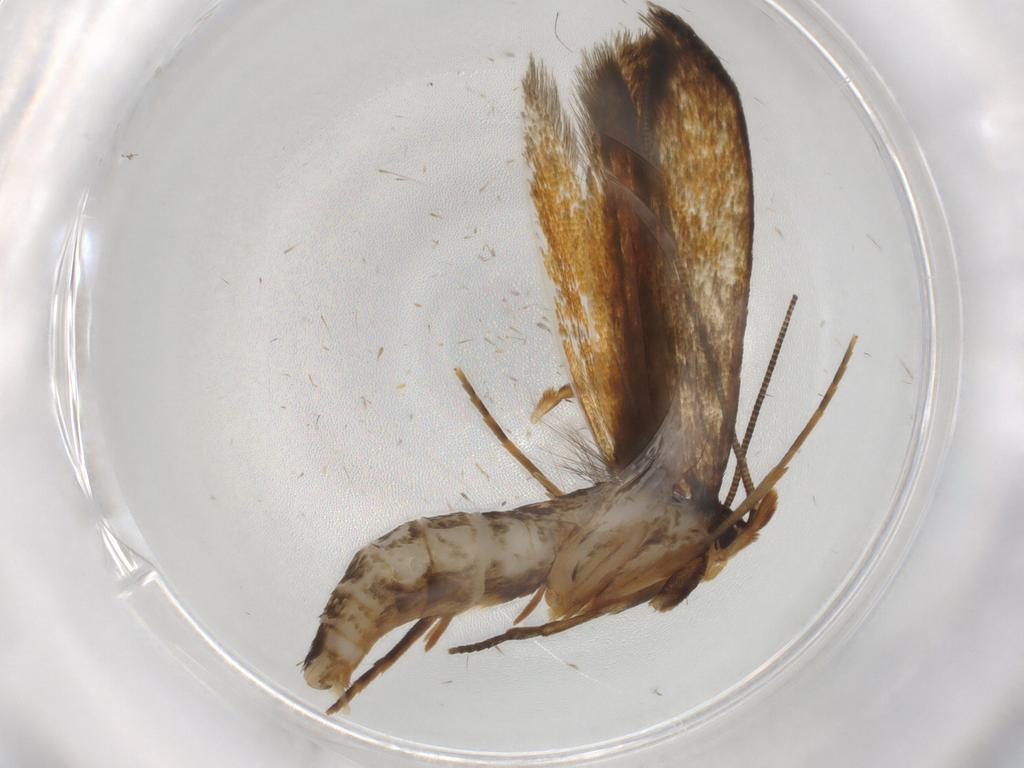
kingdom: Animalia
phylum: Arthropoda
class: Insecta
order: Lepidoptera
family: Tineidae
